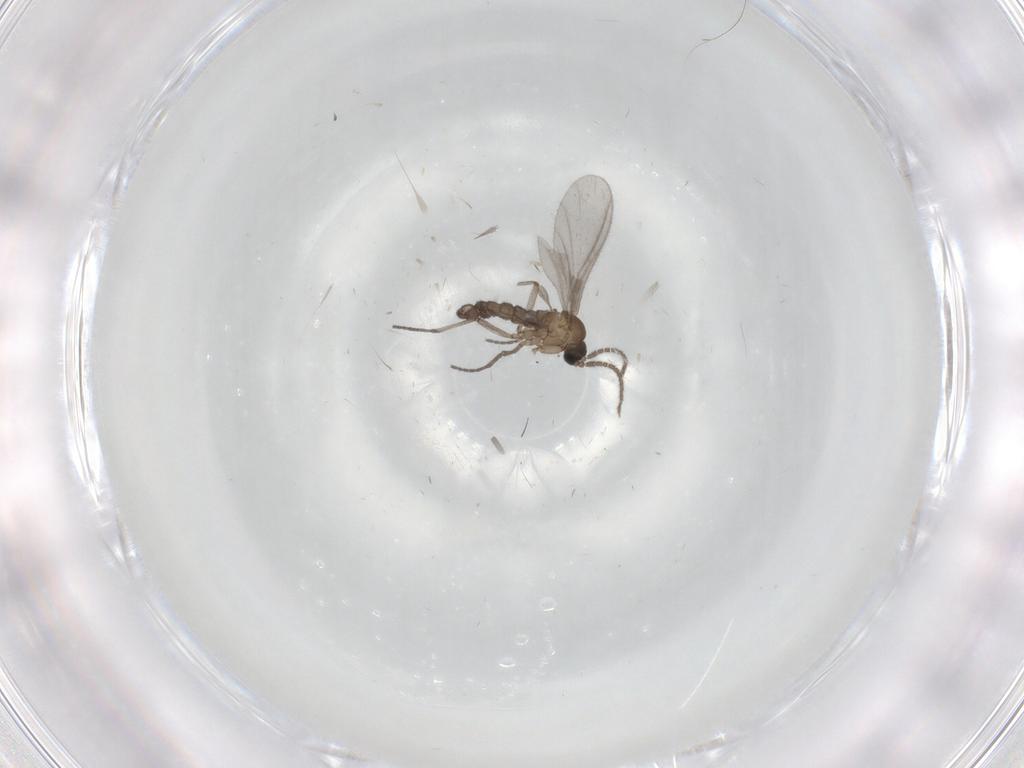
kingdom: Animalia
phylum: Arthropoda
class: Insecta
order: Diptera
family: Sciaridae
